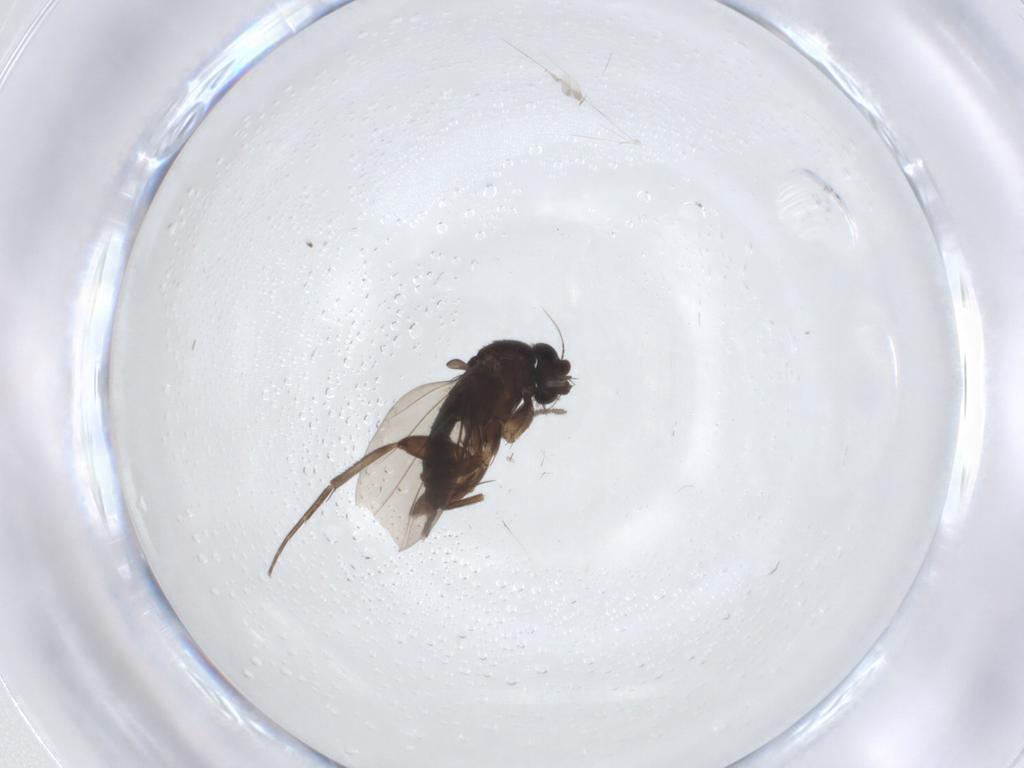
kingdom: Animalia
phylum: Arthropoda
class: Insecta
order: Diptera
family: Phoridae
